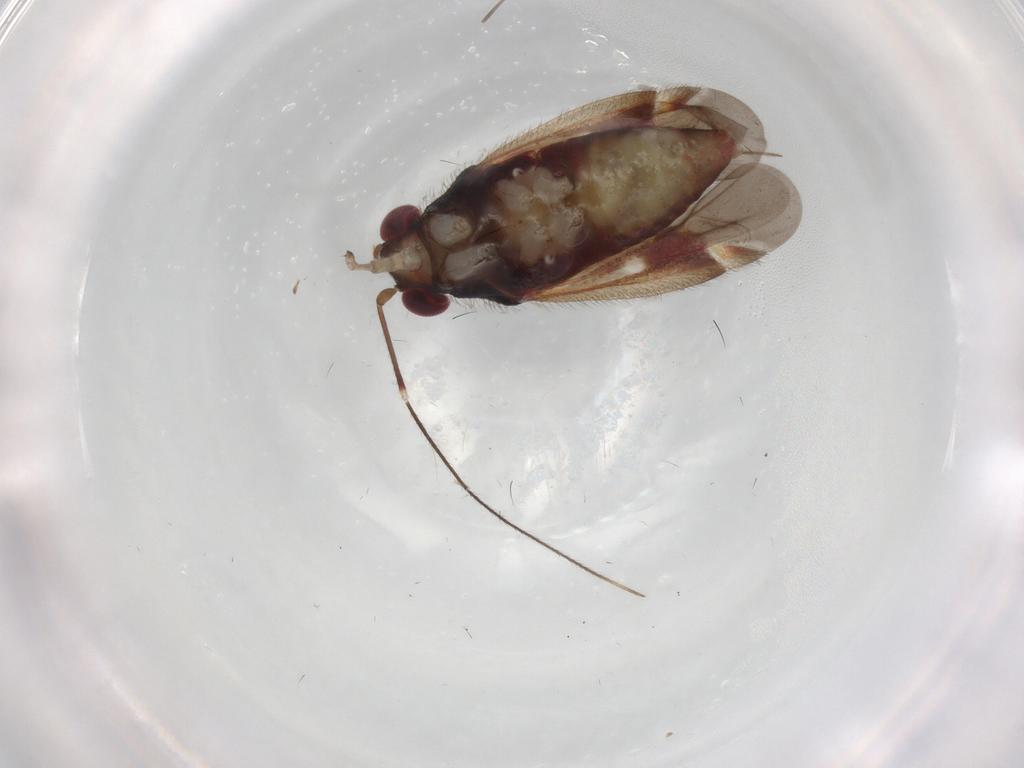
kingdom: Animalia
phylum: Arthropoda
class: Insecta
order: Hemiptera
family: Miridae
